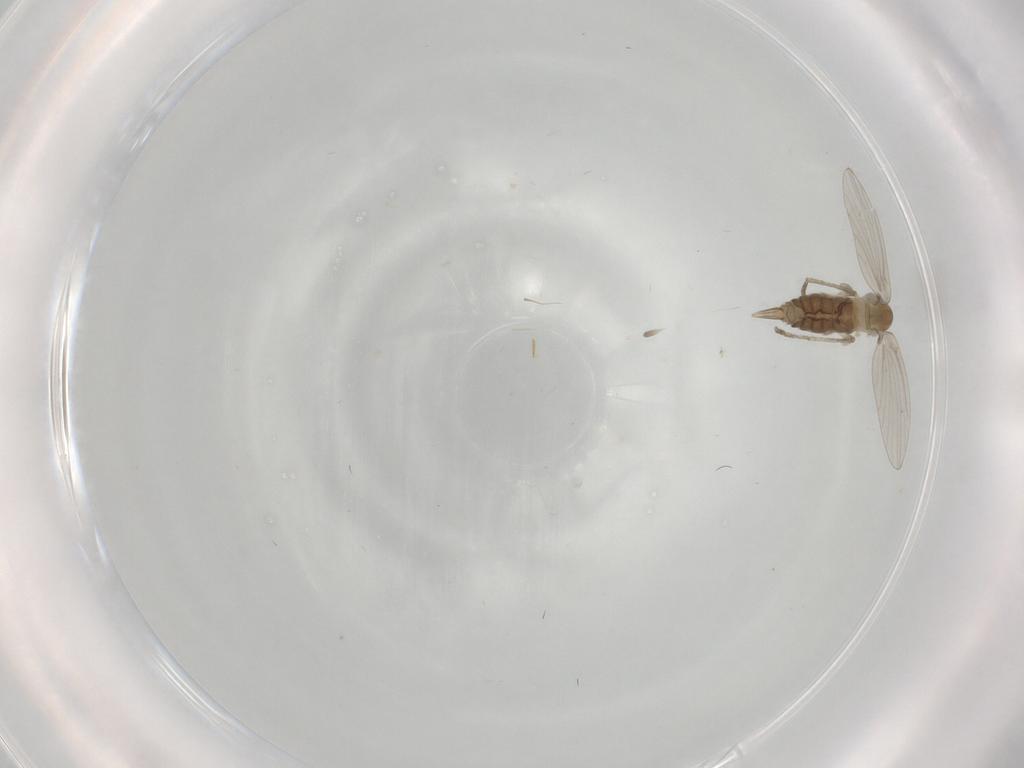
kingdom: Animalia
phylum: Arthropoda
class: Insecta
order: Diptera
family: Cecidomyiidae
